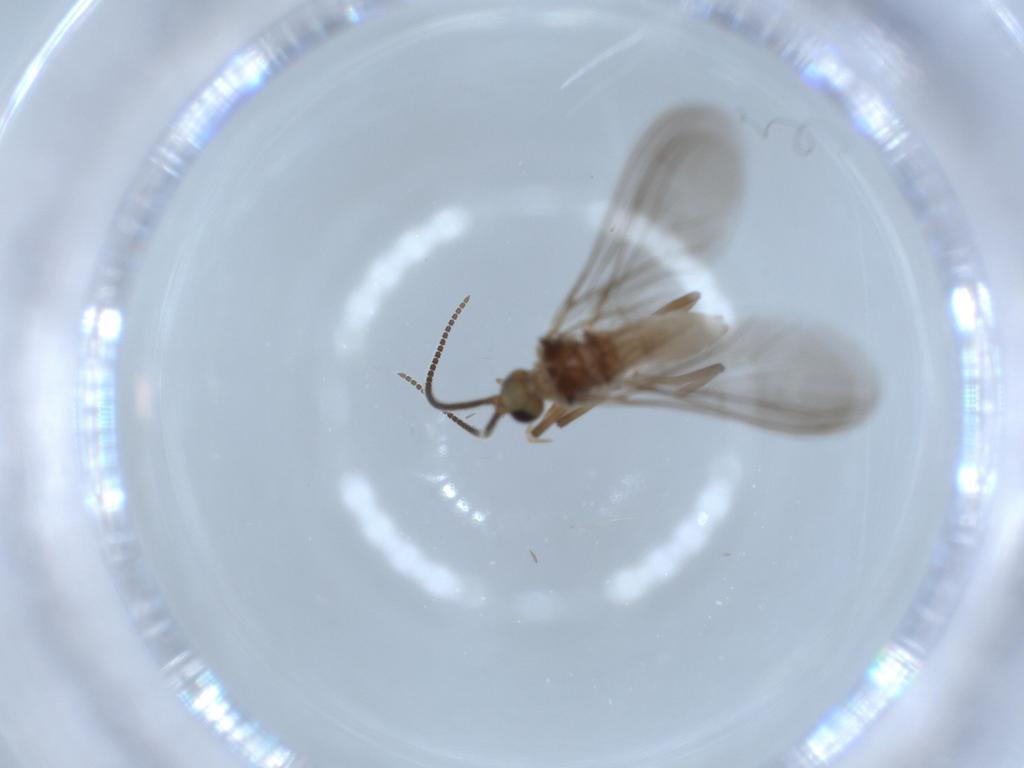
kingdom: Animalia
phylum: Arthropoda
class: Insecta
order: Neuroptera
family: Coniopterygidae
